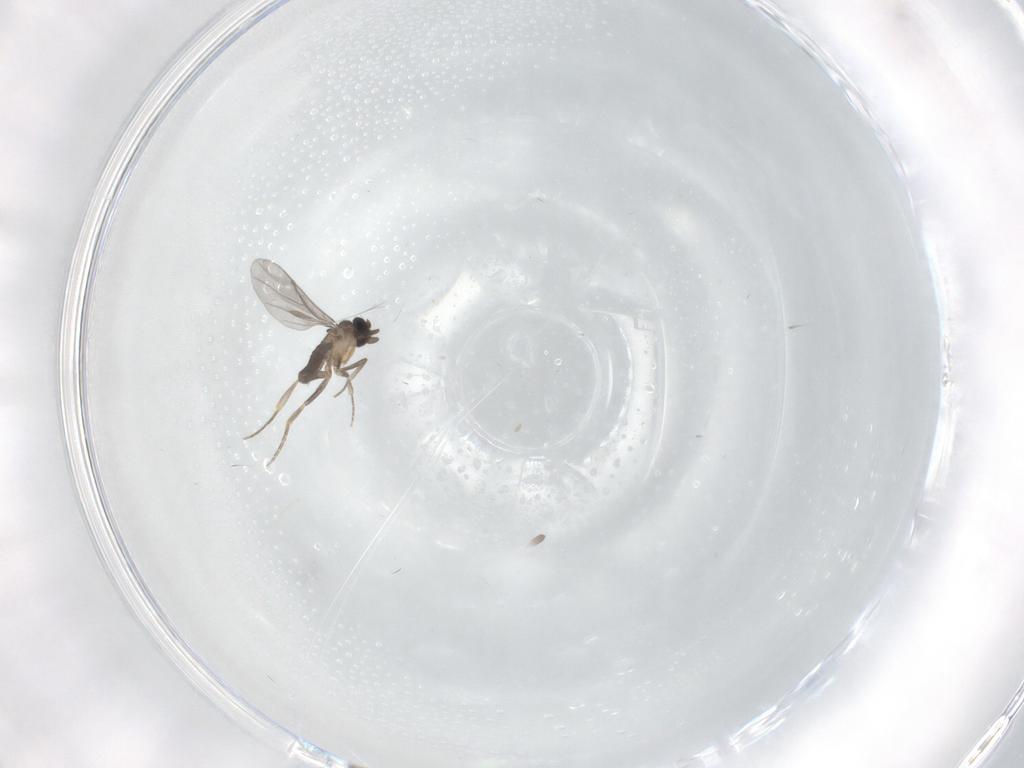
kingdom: Animalia
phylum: Arthropoda
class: Insecta
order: Diptera
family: Phoridae
